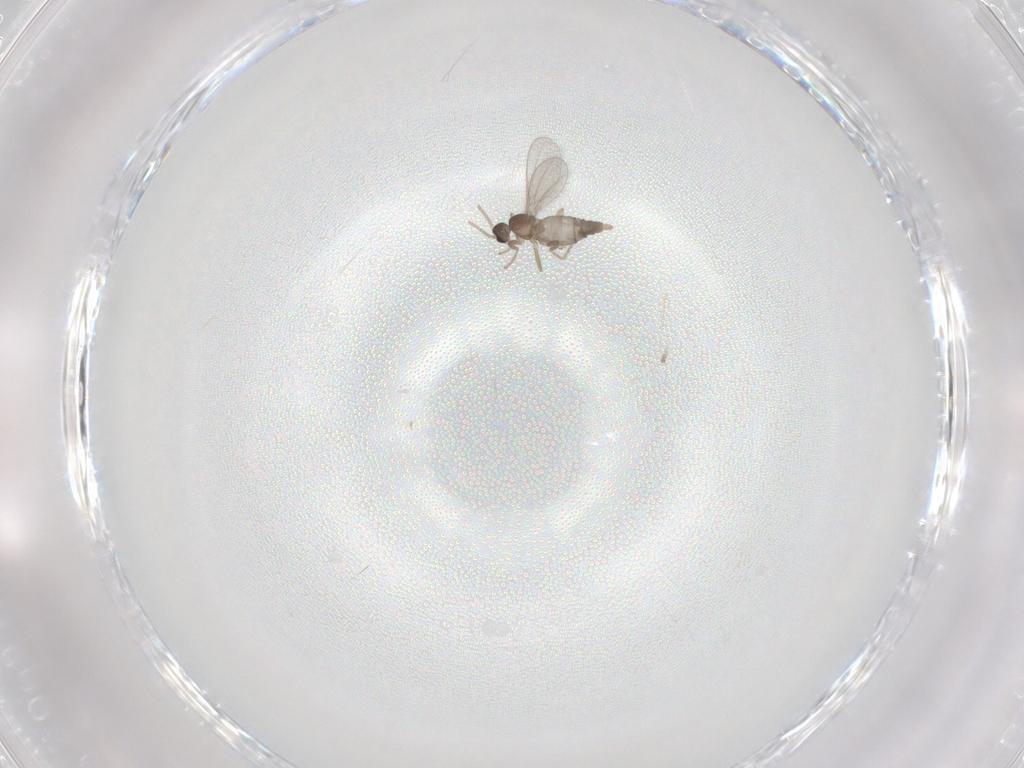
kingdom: Animalia
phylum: Arthropoda
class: Insecta
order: Diptera
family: Chironomidae
